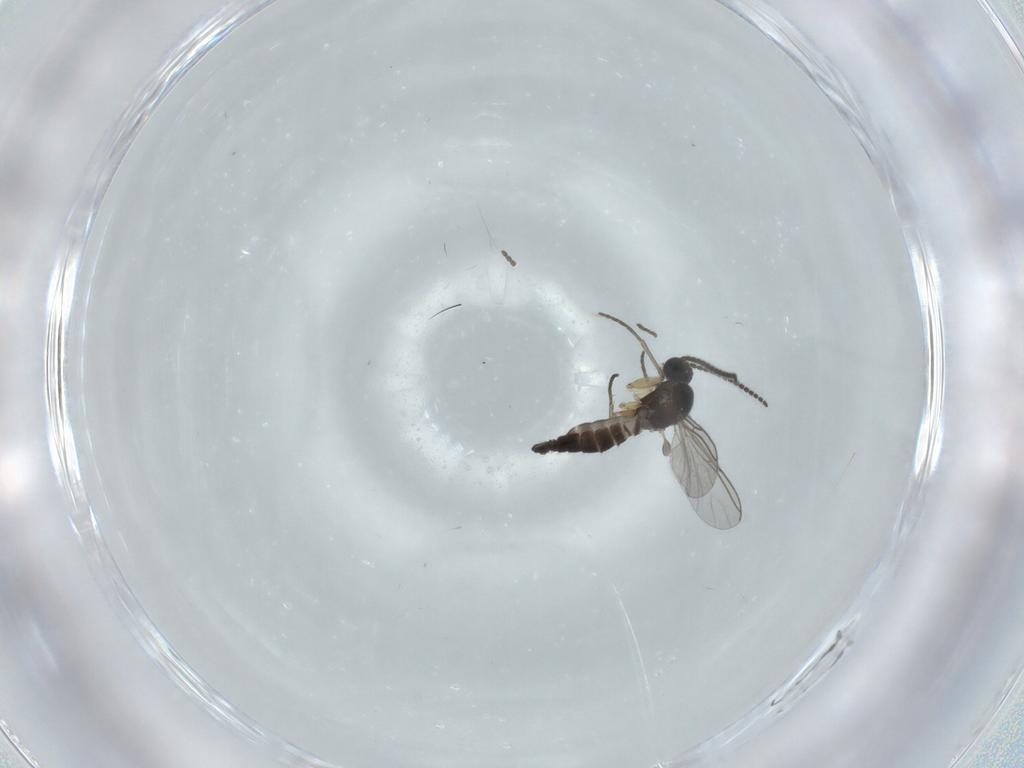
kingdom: Animalia
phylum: Arthropoda
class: Insecta
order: Diptera
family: Sciaridae
